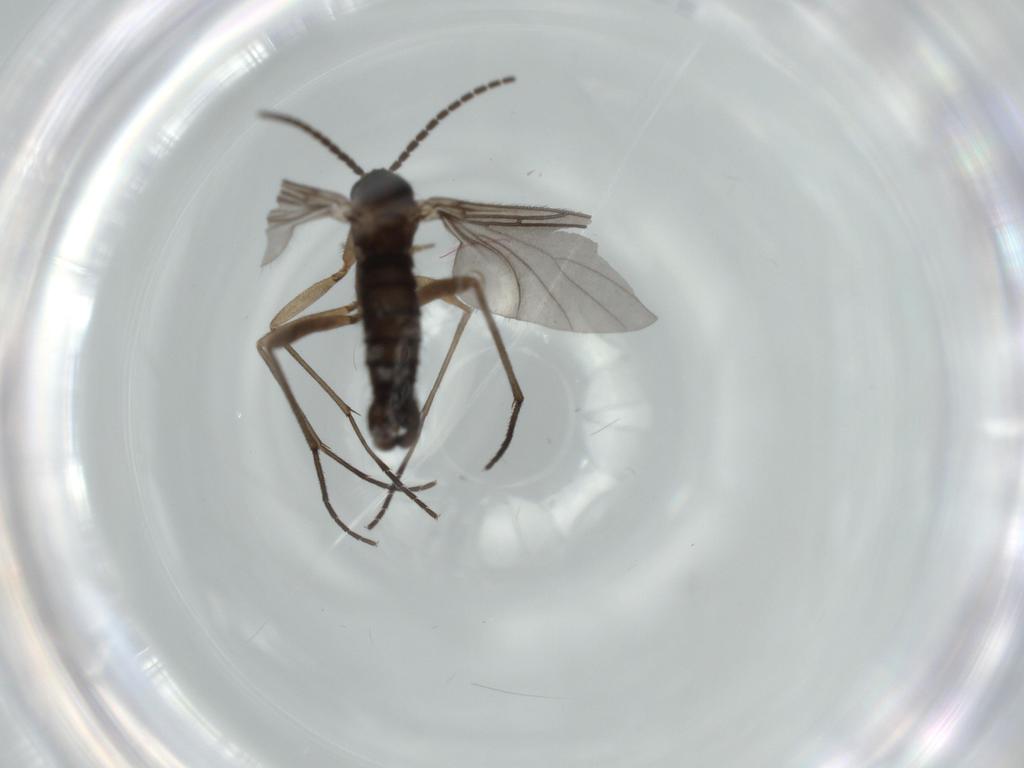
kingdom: Animalia
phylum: Arthropoda
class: Insecta
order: Diptera
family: Sciaridae
